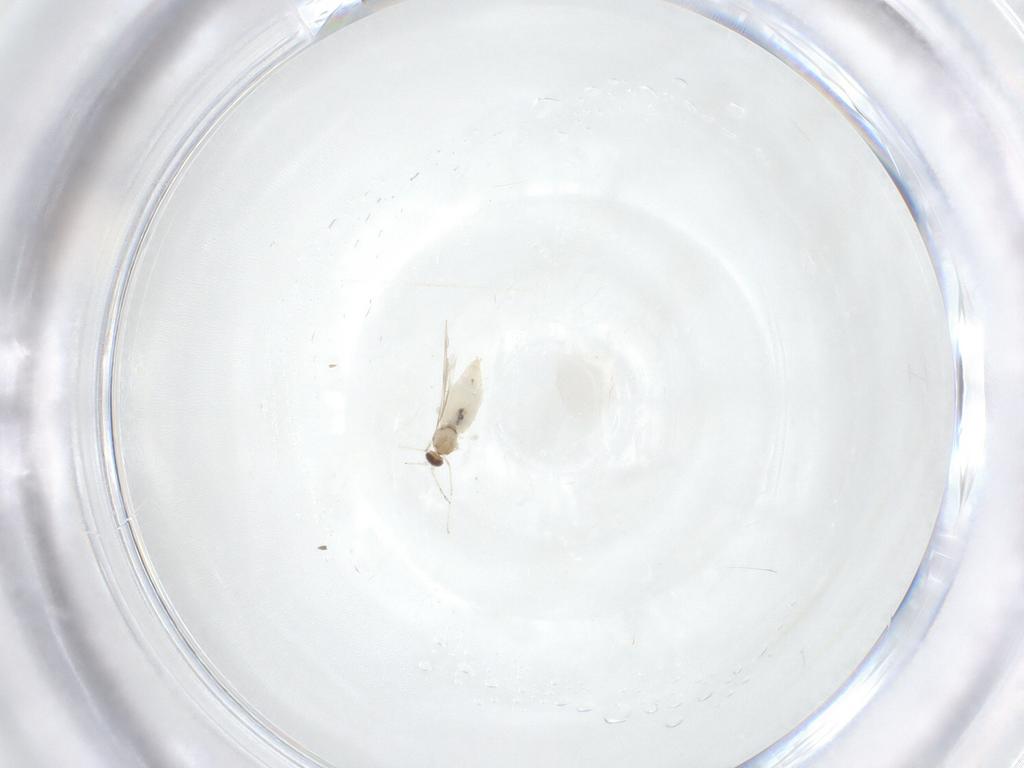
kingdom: Animalia
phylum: Arthropoda
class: Insecta
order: Diptera
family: Cecidomyiidae
